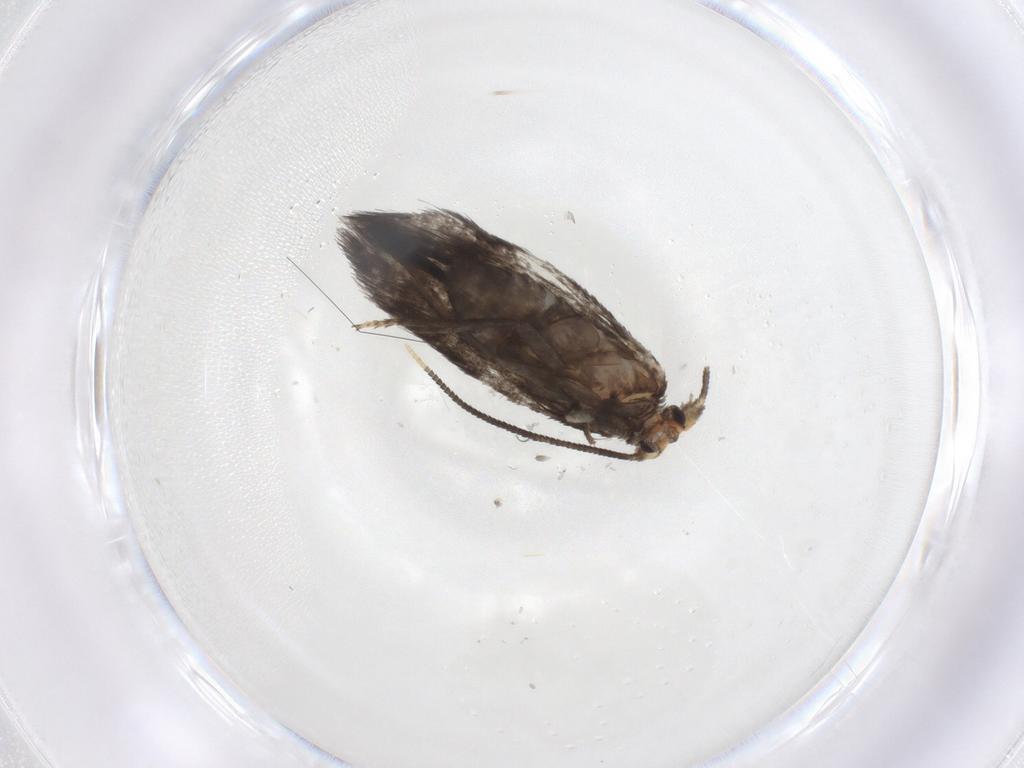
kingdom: Animalia
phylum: Arthropoda
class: Insecta
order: Lepidoptera
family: Nepticulidae
